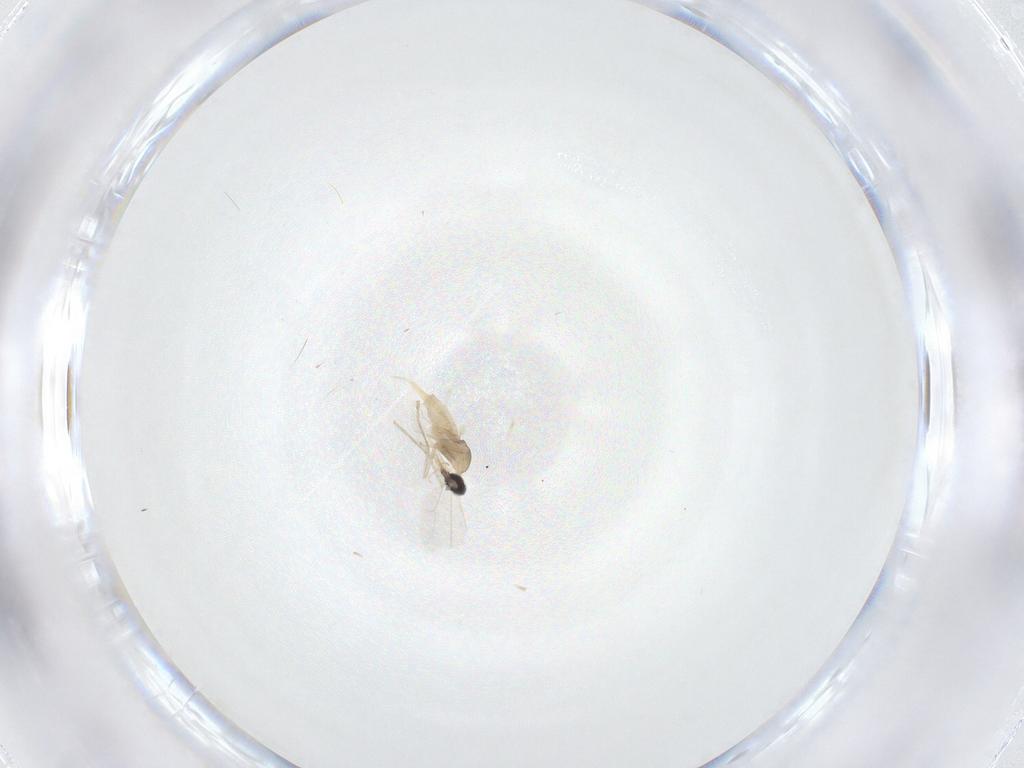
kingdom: Animalia
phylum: Arthropoda
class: Insecta
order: Diptera
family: Cecidomyiidae
